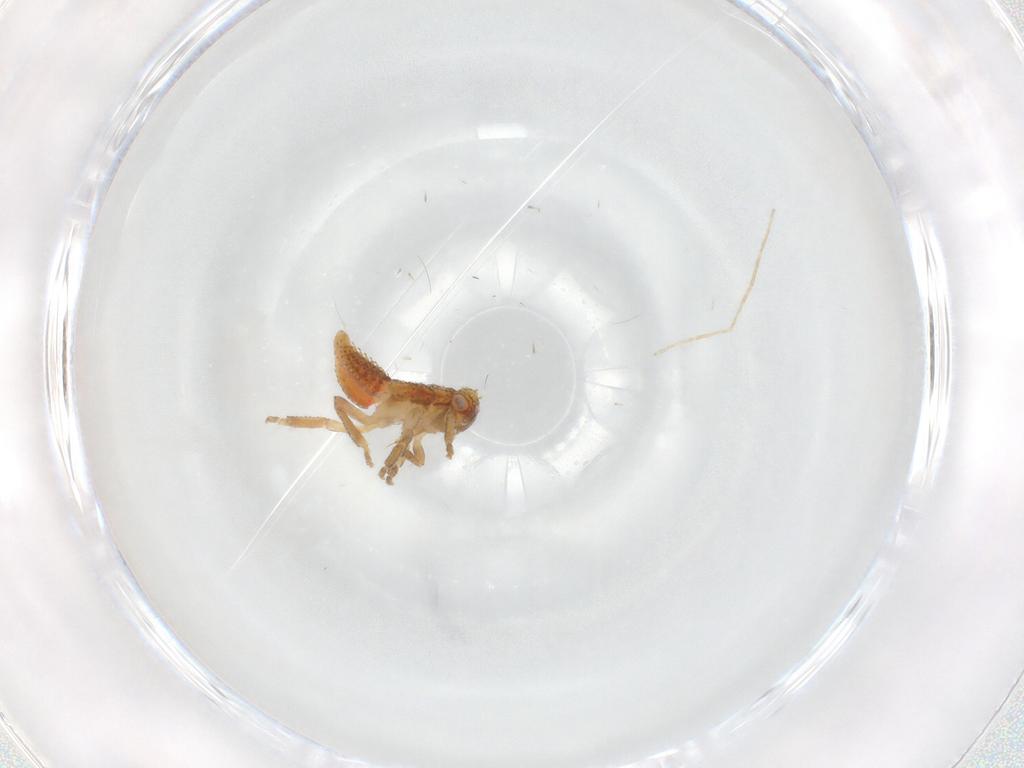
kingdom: Animalia
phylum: Arthropoda
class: Insecta
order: Hemiptera
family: Cicadellidae
